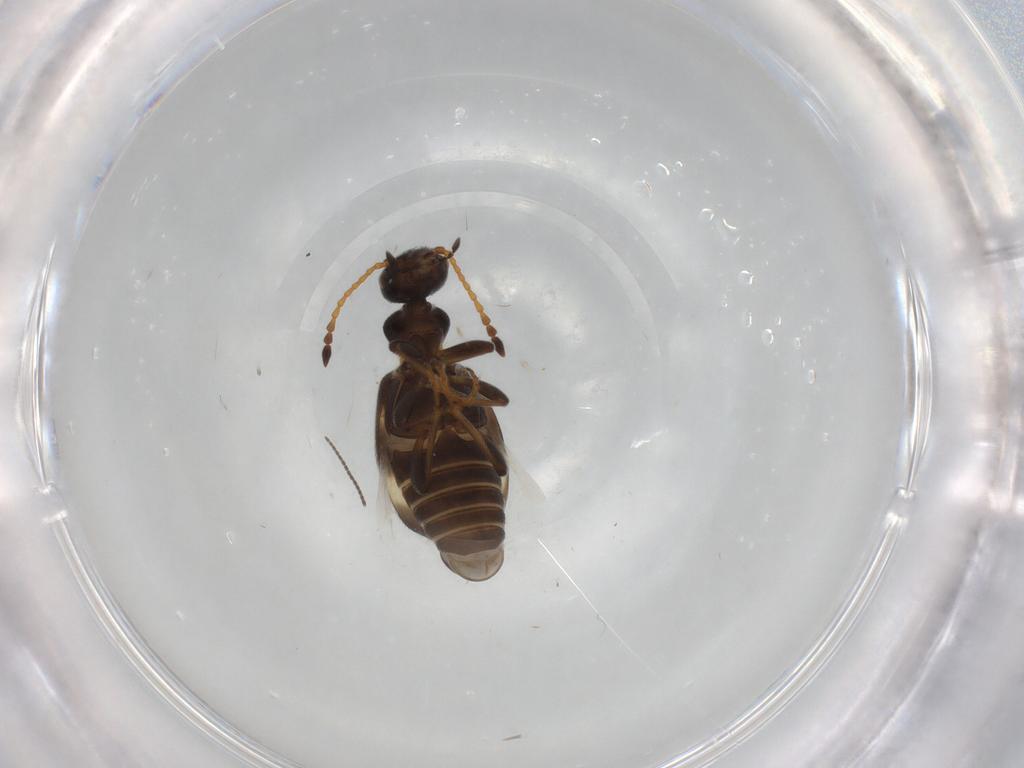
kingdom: Animalia
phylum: Arthropoda
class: Insecta
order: Coleoptera
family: Anthicidae
